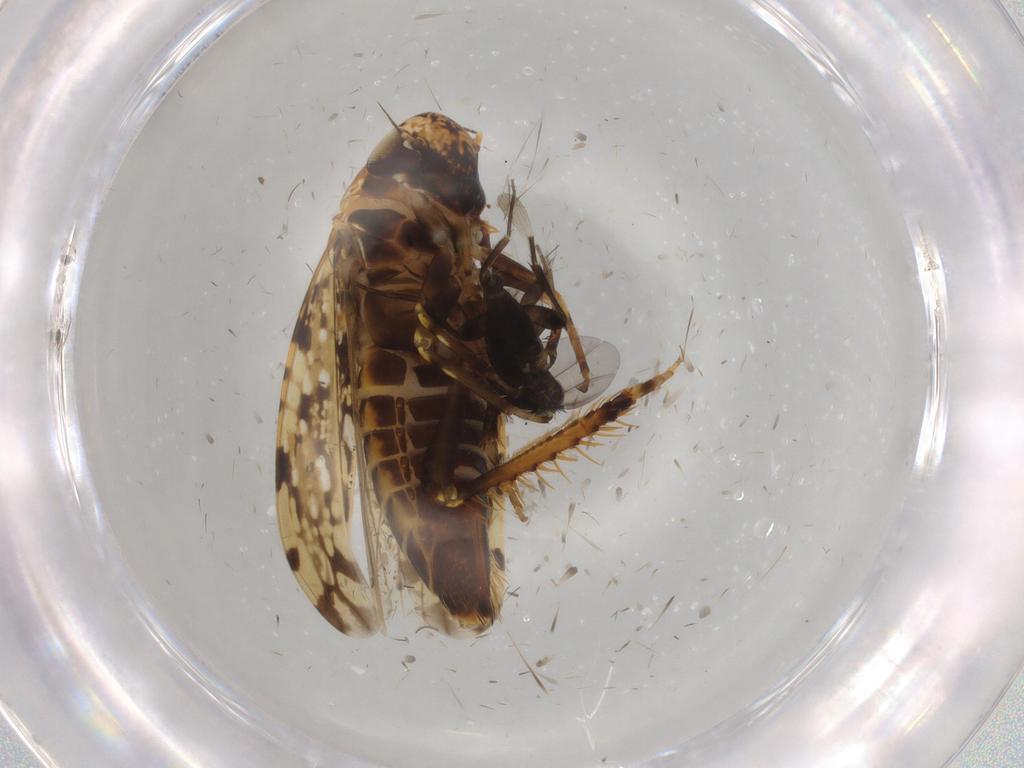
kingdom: Animalia
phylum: Arthropoda
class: Insecta
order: Hemiptera
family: Cicadellidae
